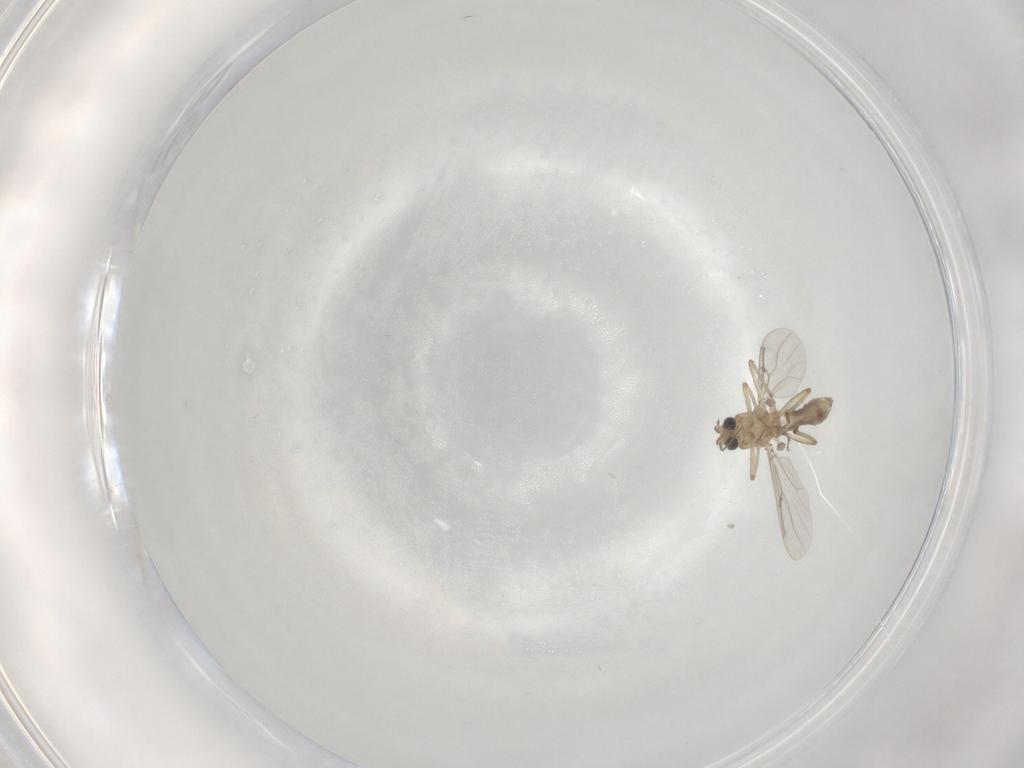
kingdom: Animalia
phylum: Arthropoda
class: Insecta
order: Diptera
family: Ceratopogonidae
